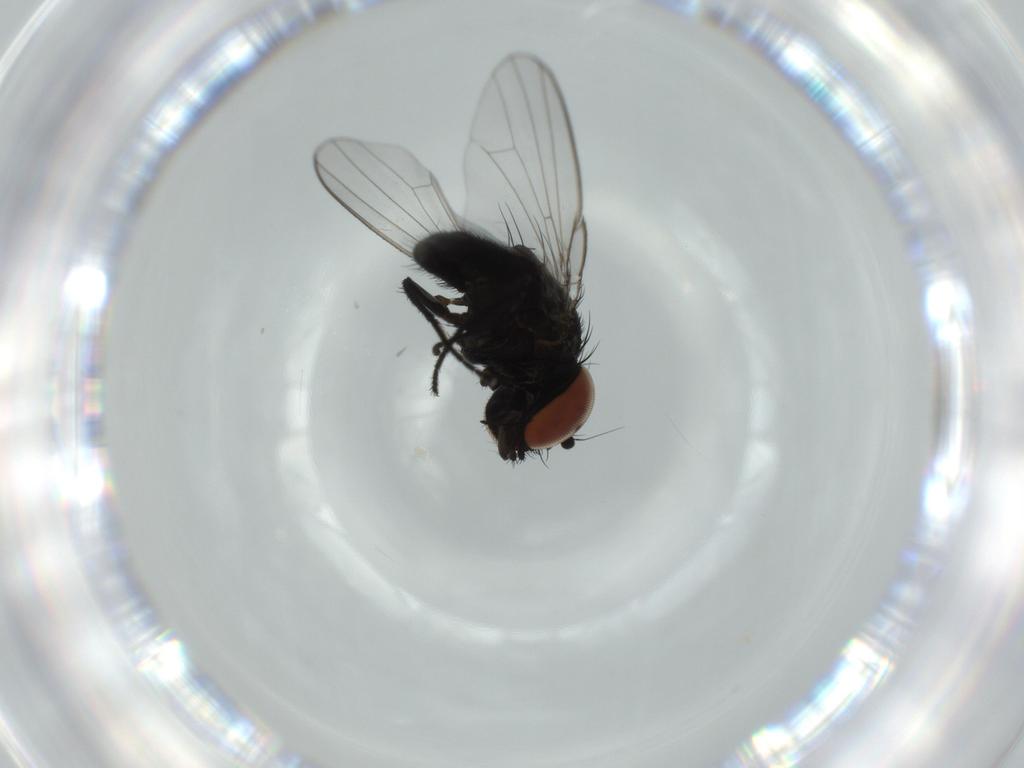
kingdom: Animalia
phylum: Arthropoda
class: Insecta
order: Diptera
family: Milichiidae
